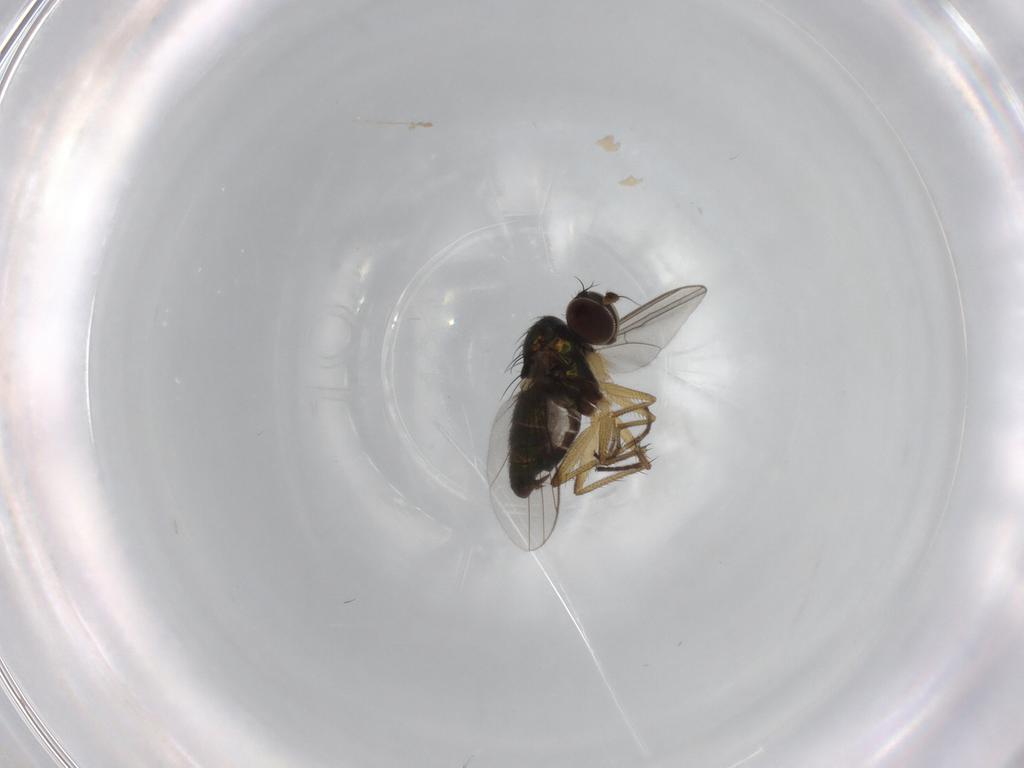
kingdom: Animalia
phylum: Arthropoda
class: Insecta
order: Diptera
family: Dolichopodidae
